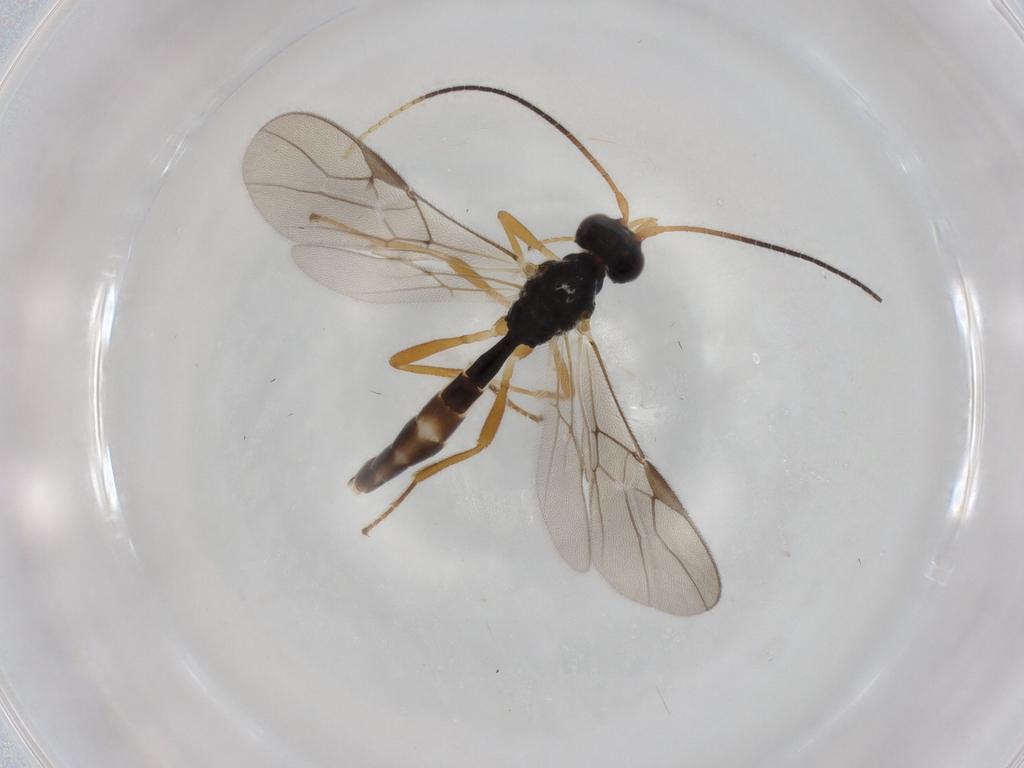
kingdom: Animalia
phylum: Arthropoda
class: Insecta
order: Hymenoptera
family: Braconidae
